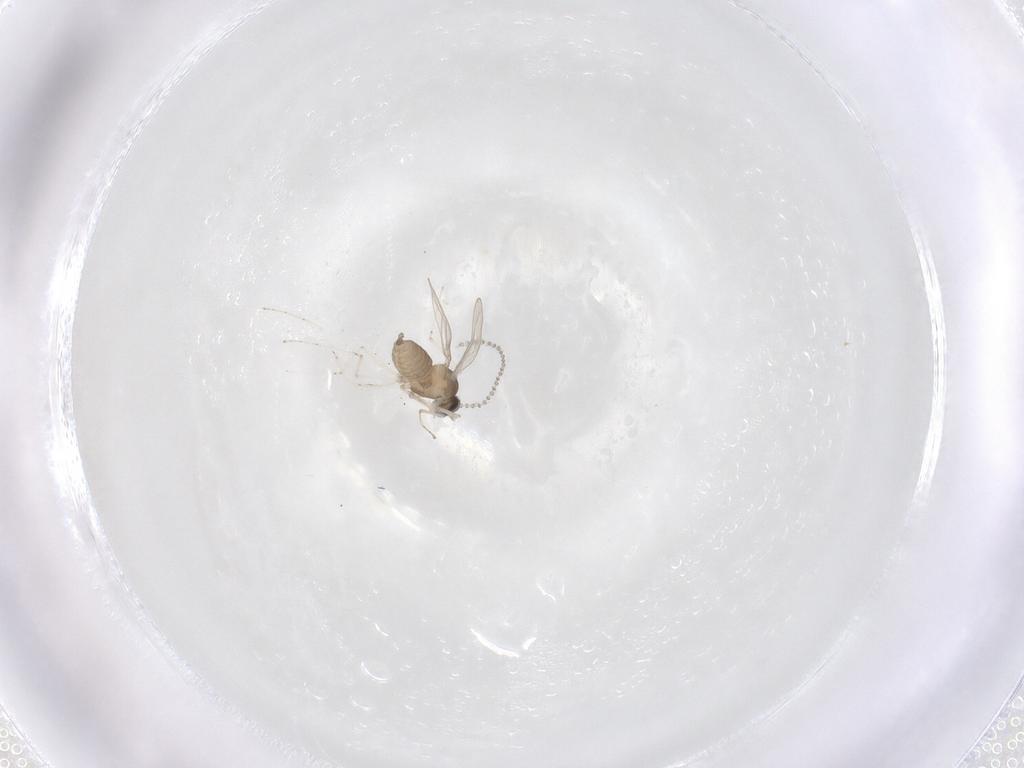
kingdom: Animalia
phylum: Arthropoda
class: Insecta
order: Diptera
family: Cecidomyiidae
